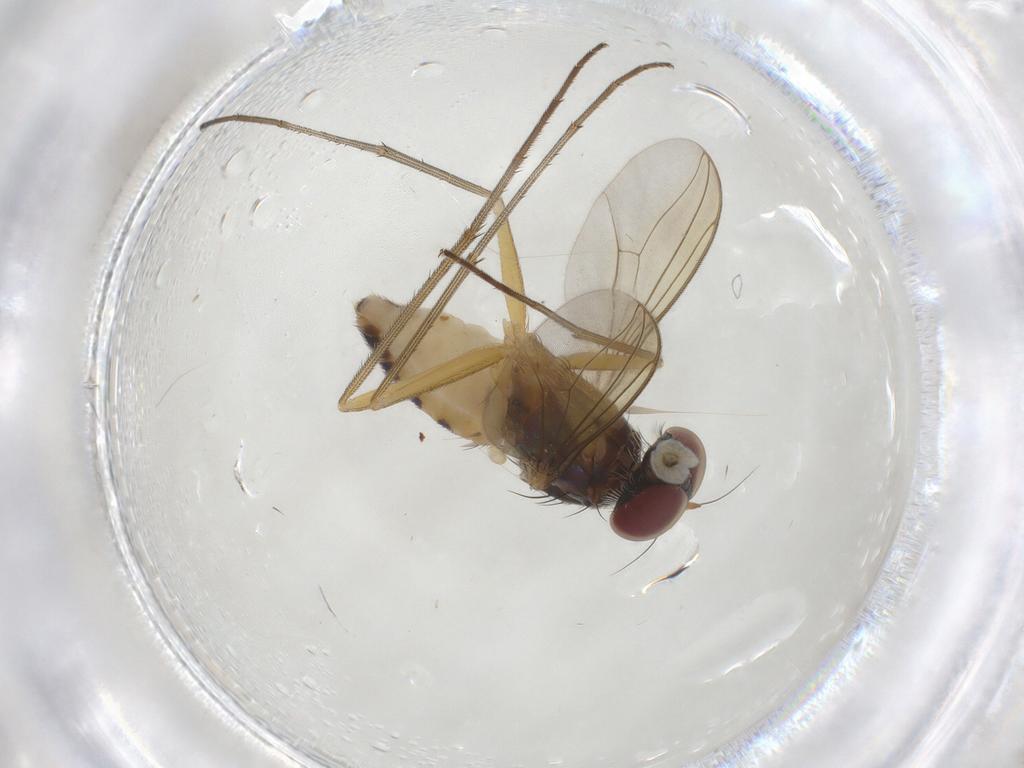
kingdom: Animalia
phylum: Arthropoda
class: Insecta
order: Diptera
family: Dolichopodidae
